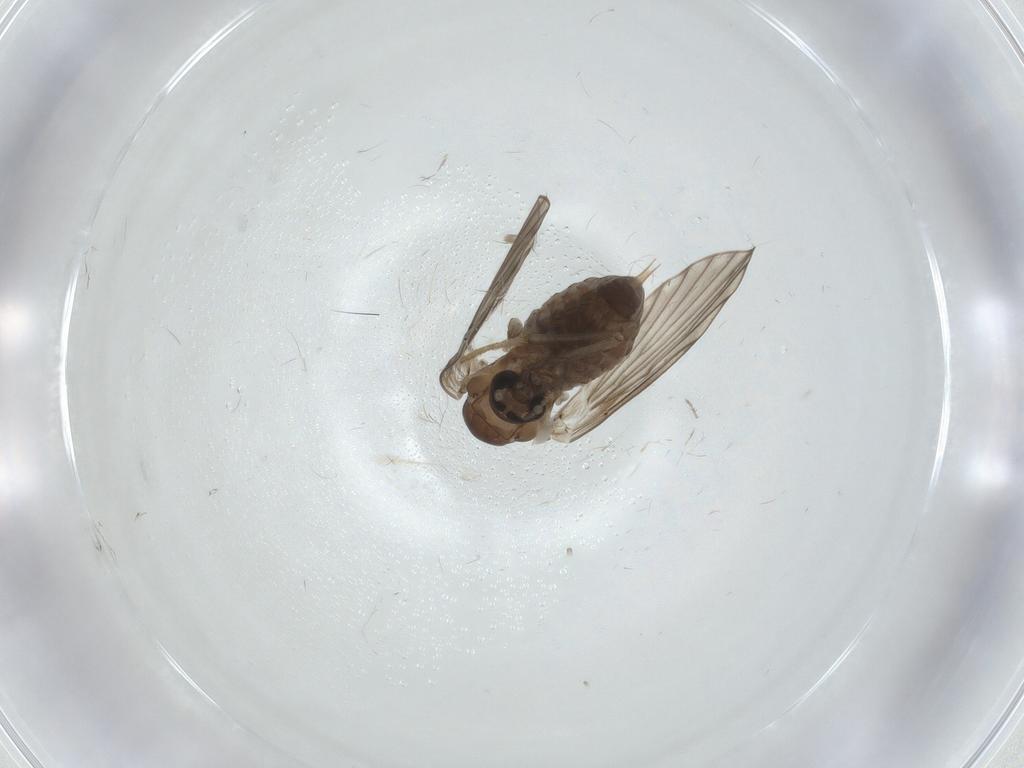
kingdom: Animalia
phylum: Arthropoda
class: Insecta
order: Diptera
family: Psychodidae
